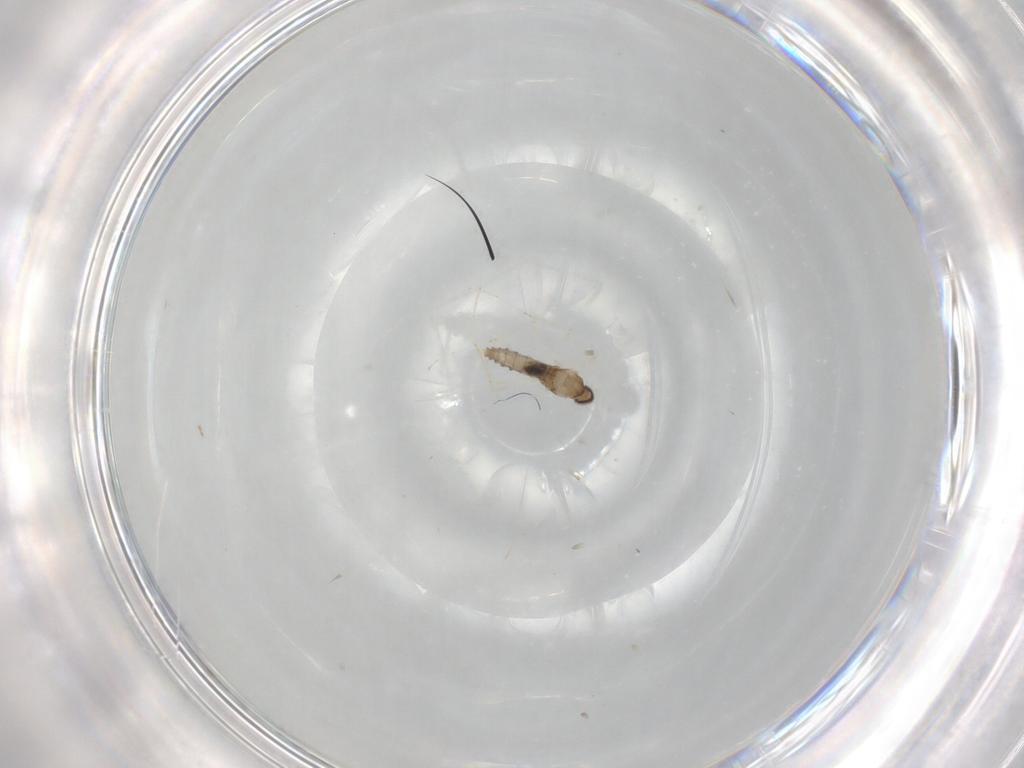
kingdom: Animalia
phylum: Arthropoda
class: Insecta
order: Diptera
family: Cecidomyiidae
